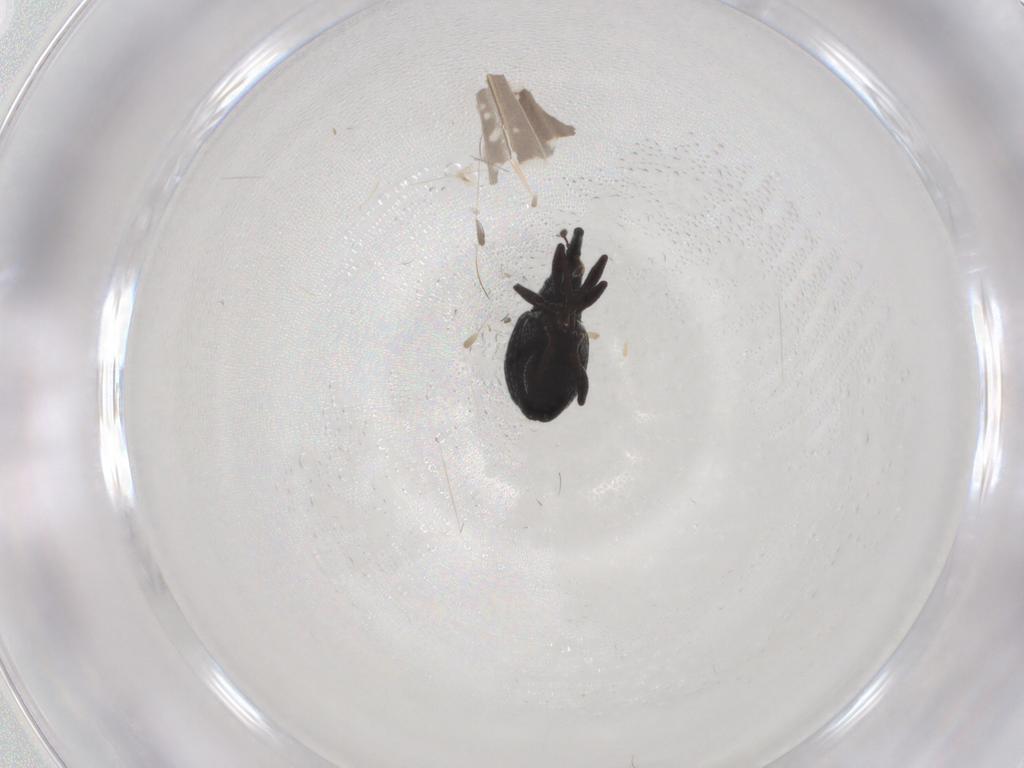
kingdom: Animalia
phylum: Arthropoda
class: Insecta
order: Coleoptera
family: Brentidae
